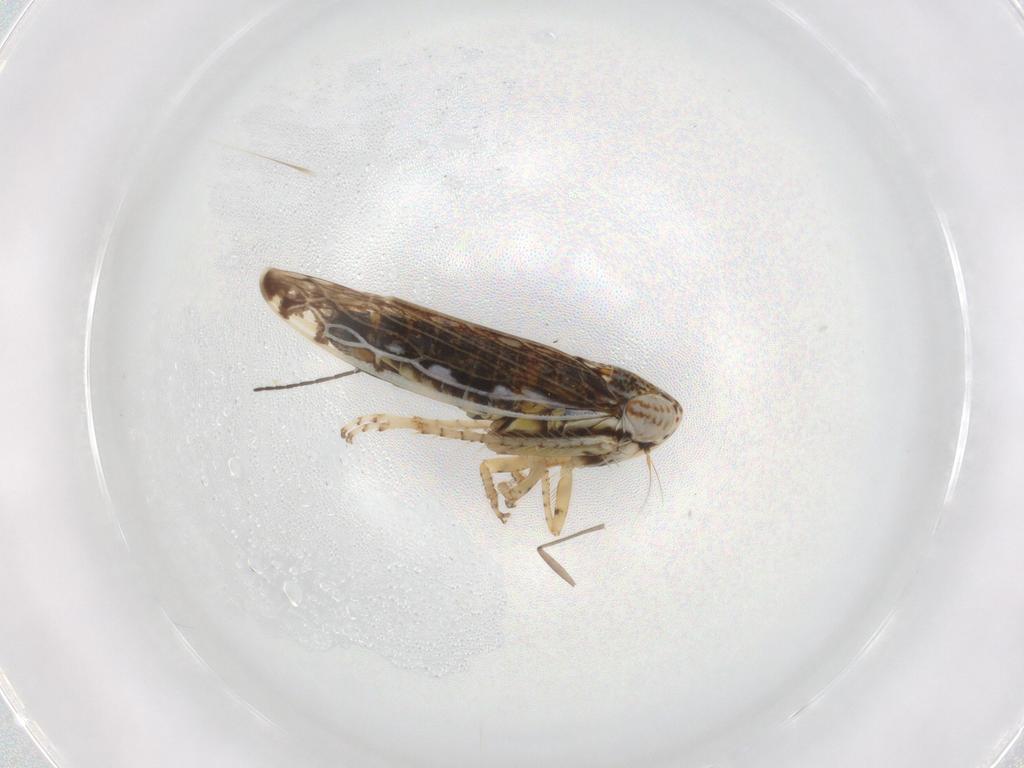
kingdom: Animalia
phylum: Arthropoda
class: Insecta
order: Hemiptera
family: Cicadellidae
